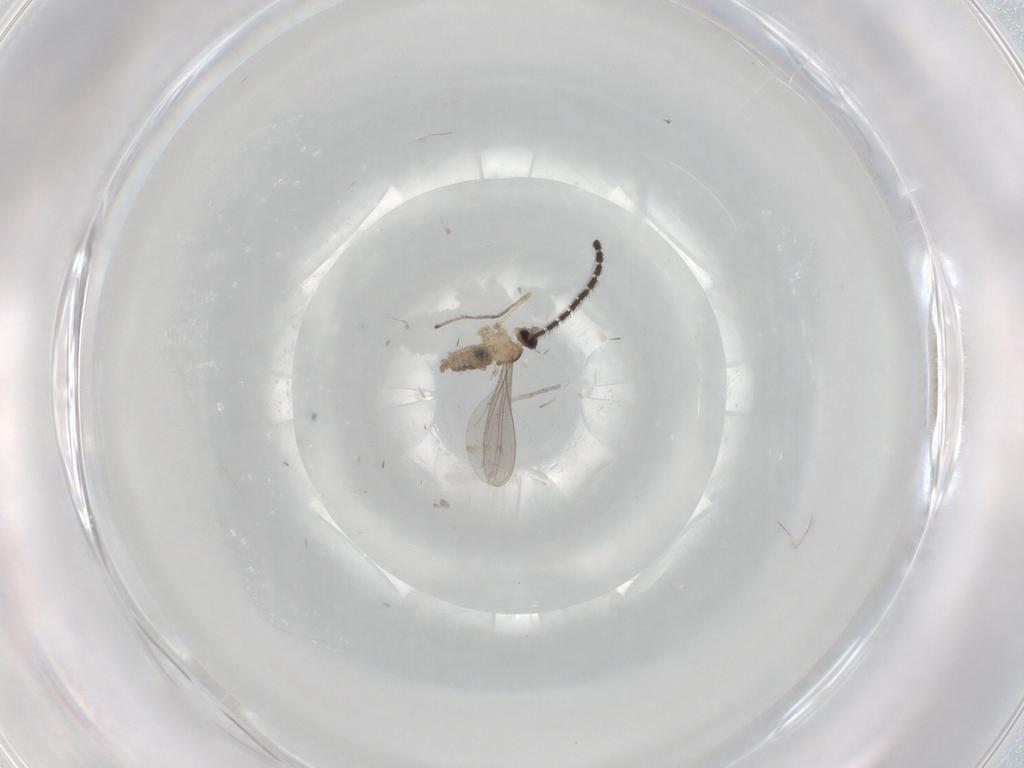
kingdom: Animalia
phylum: Arthropoda
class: Insecta
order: Diptera
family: Cecidomyiidae
